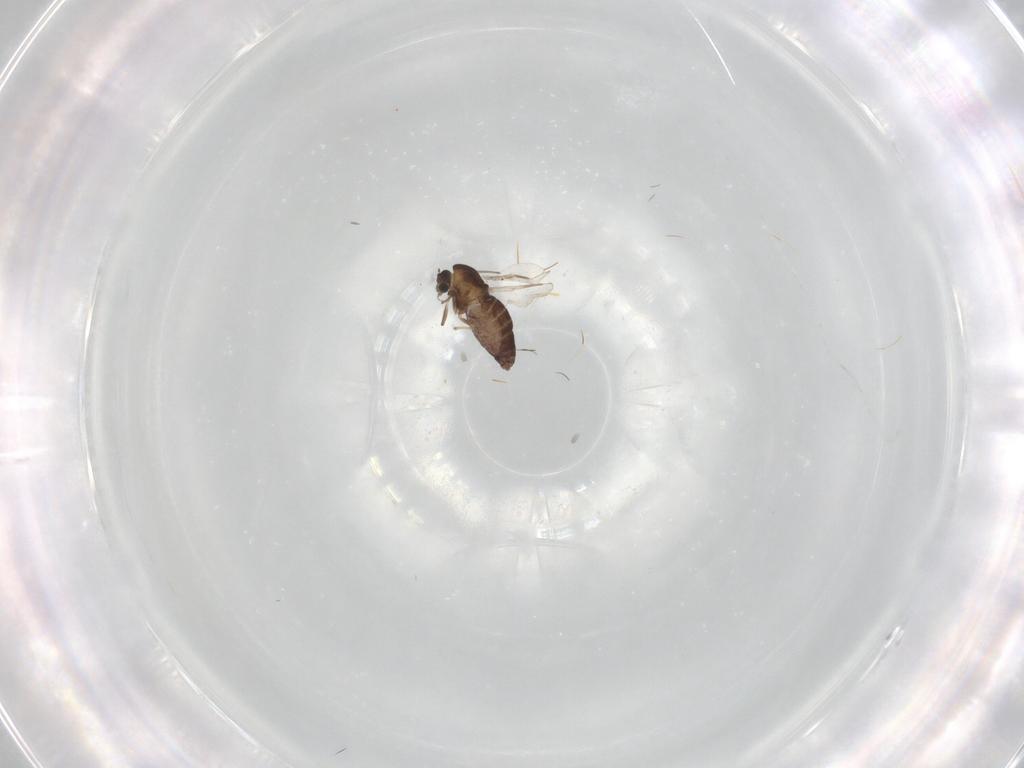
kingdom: Animalia
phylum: Arthropoda
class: Insecta
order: Diptera
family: Chironomidae
